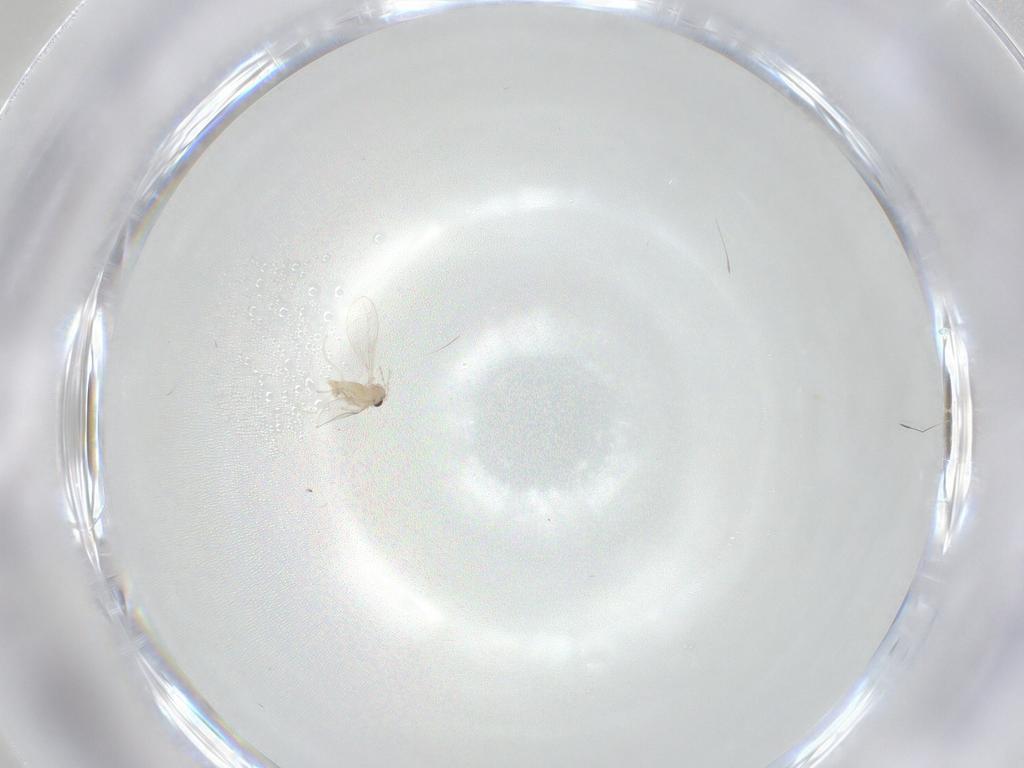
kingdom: Animalia
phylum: Arthropoda
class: Insecta
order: Diptera
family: Cecidomyiidae
